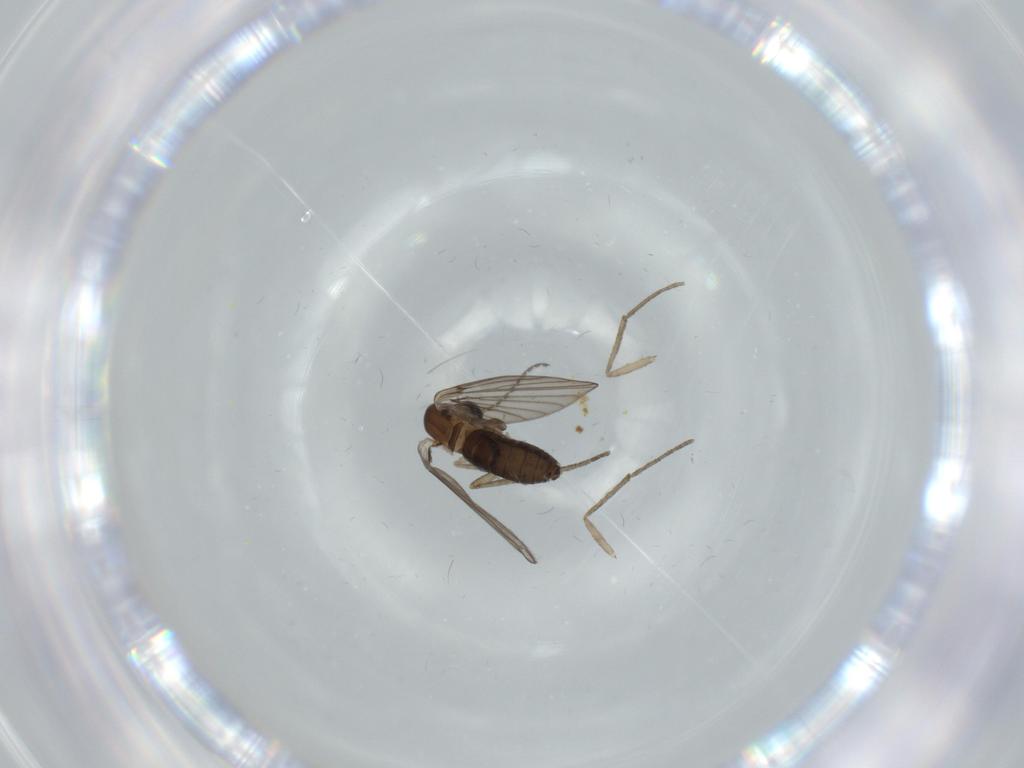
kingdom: Animalia
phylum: Arthropoda
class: Insecta
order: Diptera
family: Psychodidae
